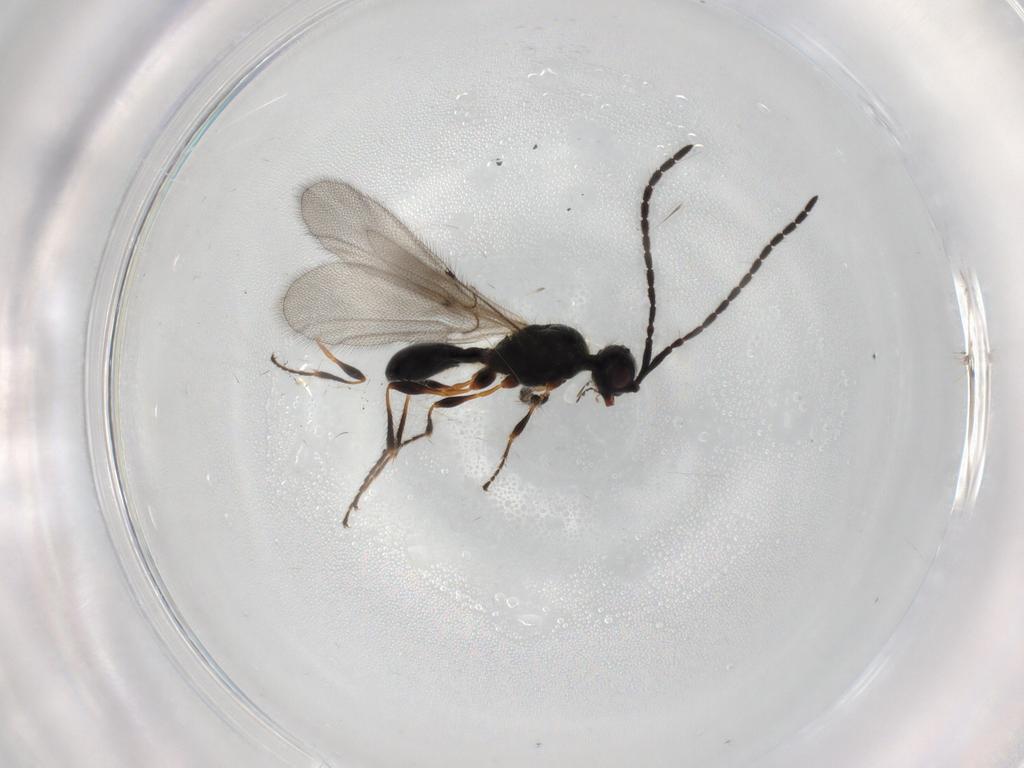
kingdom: Animalia
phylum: Arthropoda
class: Insecta
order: Hymenoptera
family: Diapriidae
